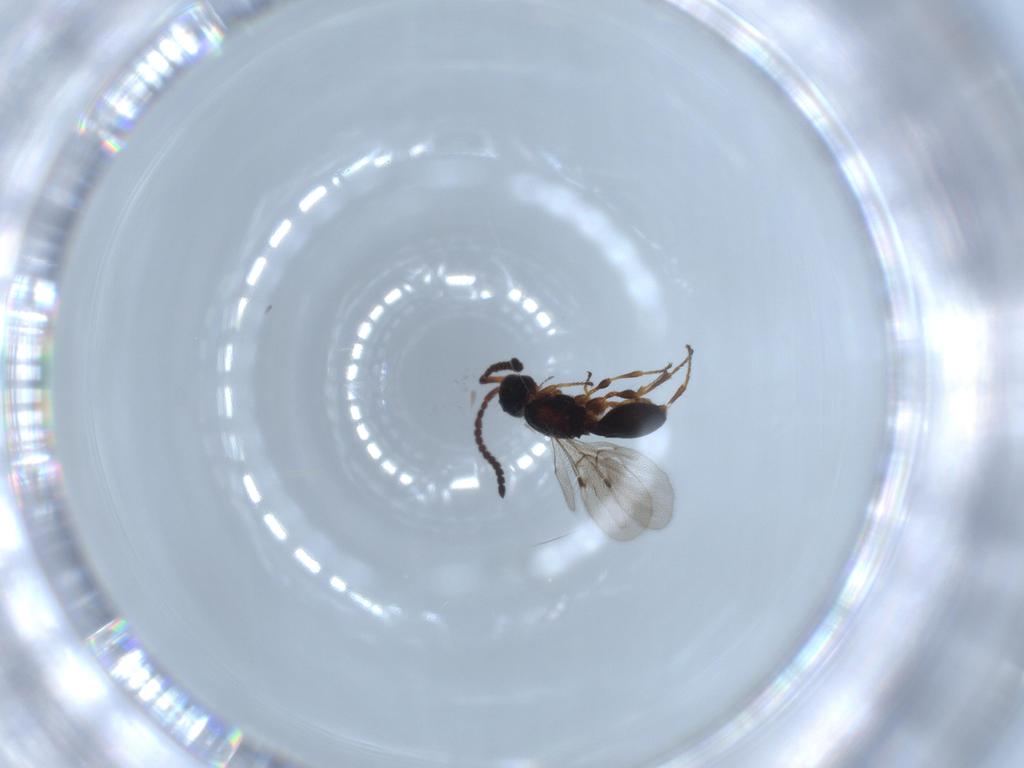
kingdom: Animalia
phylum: Arthropoda
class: Insecta
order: Hymenoptera
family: Diapriidae
